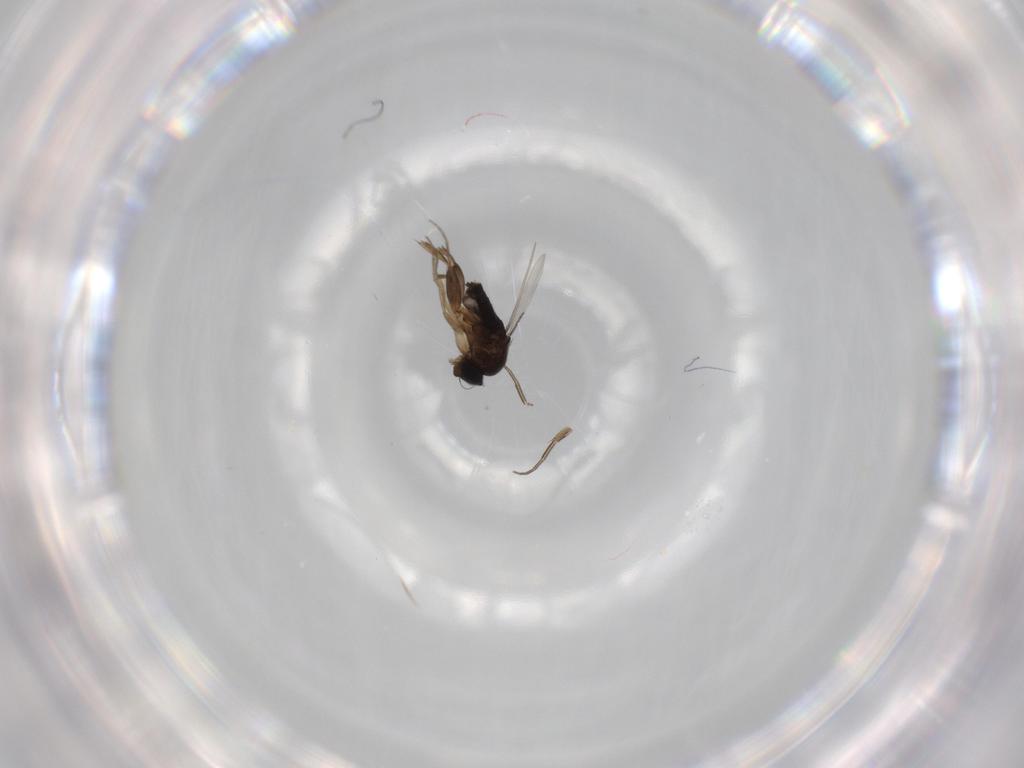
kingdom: Animalia
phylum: Arthropoda
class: Insecta
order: Diptera
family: Phoridae
